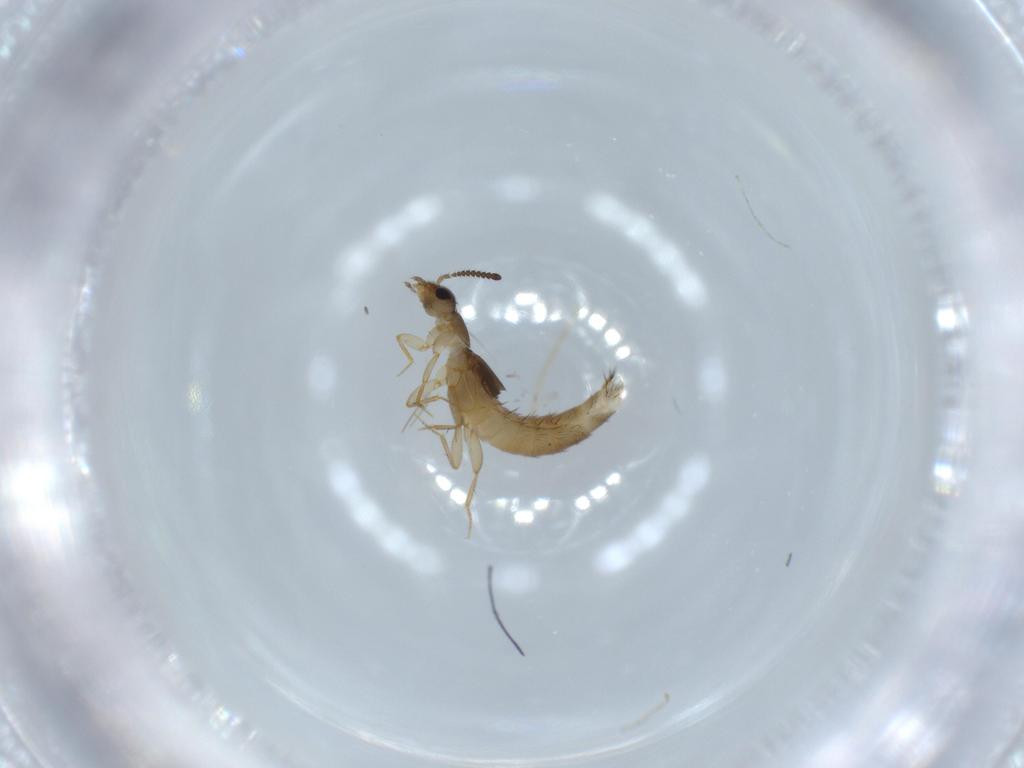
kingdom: Animalia
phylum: Arthropoda
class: Insecta
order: Coleoptera
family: Staphylinidae
